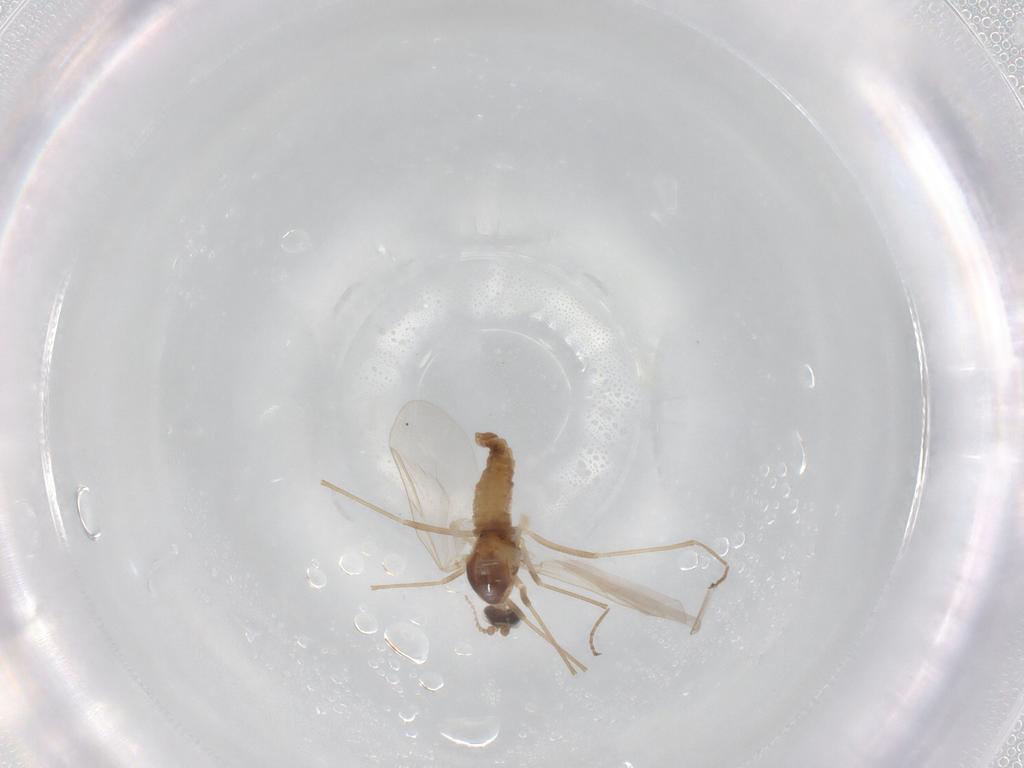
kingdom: Animalia
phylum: Arthropoda
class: Insecta
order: Diptera
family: Cecidomyiidae
